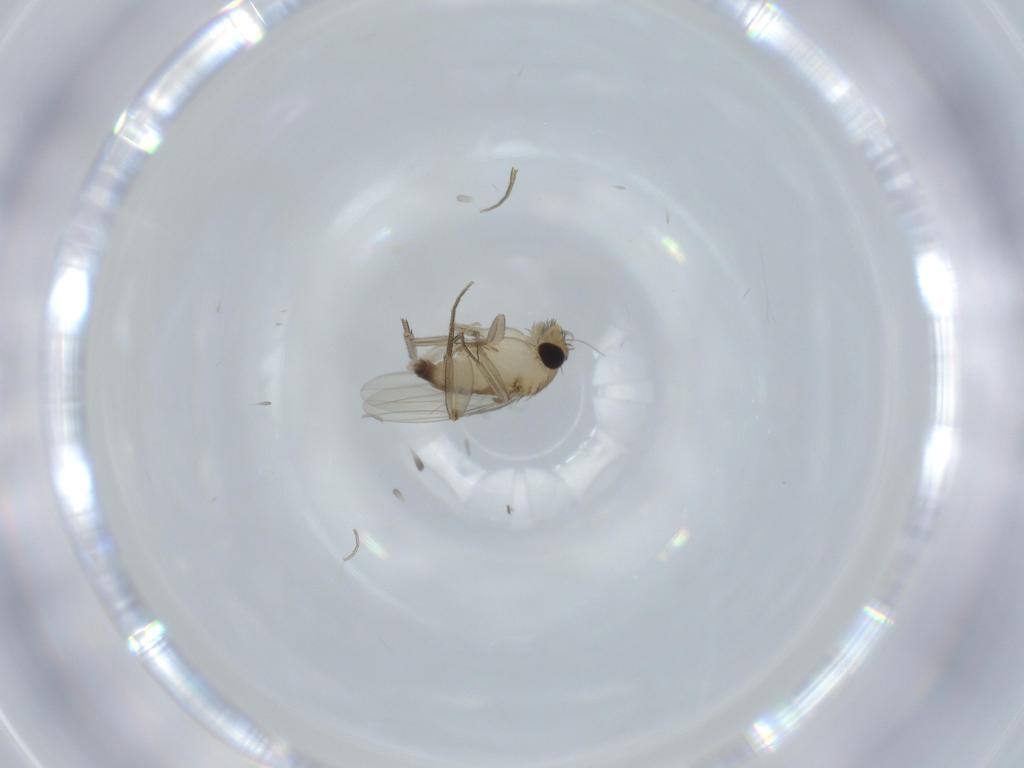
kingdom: Animalia
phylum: Arthropoda
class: Insecta
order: Diptera
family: Phoridae
